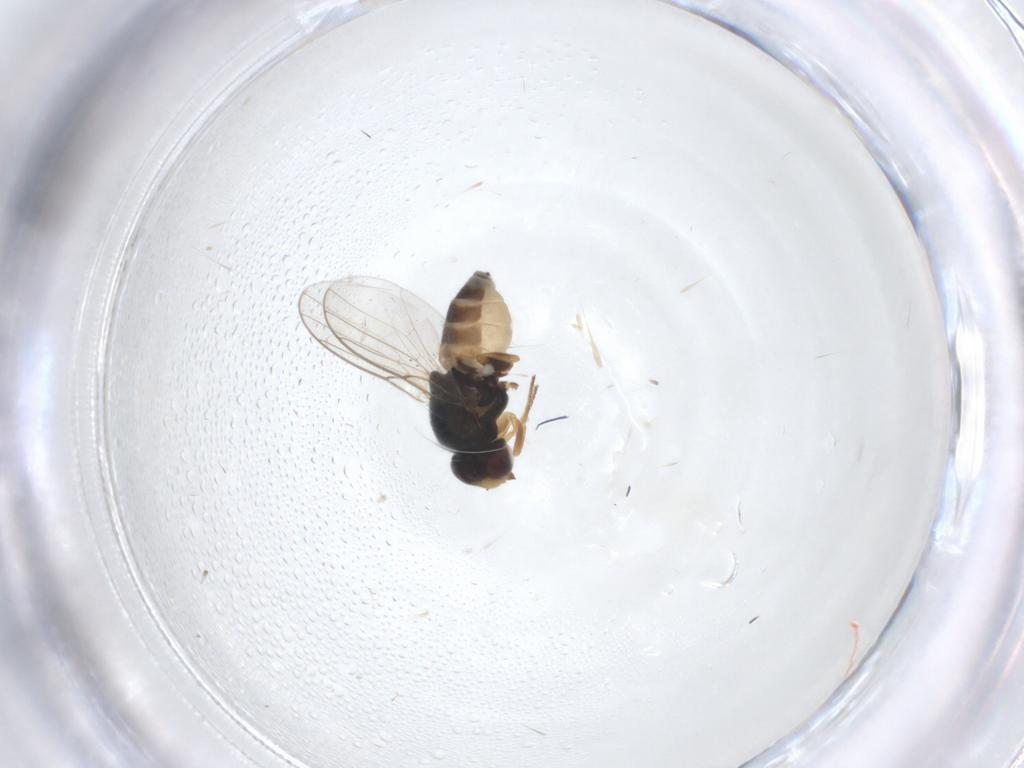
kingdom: Animalia
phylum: Arthropoda
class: Insecta
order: Diptera
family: Chloropidae
